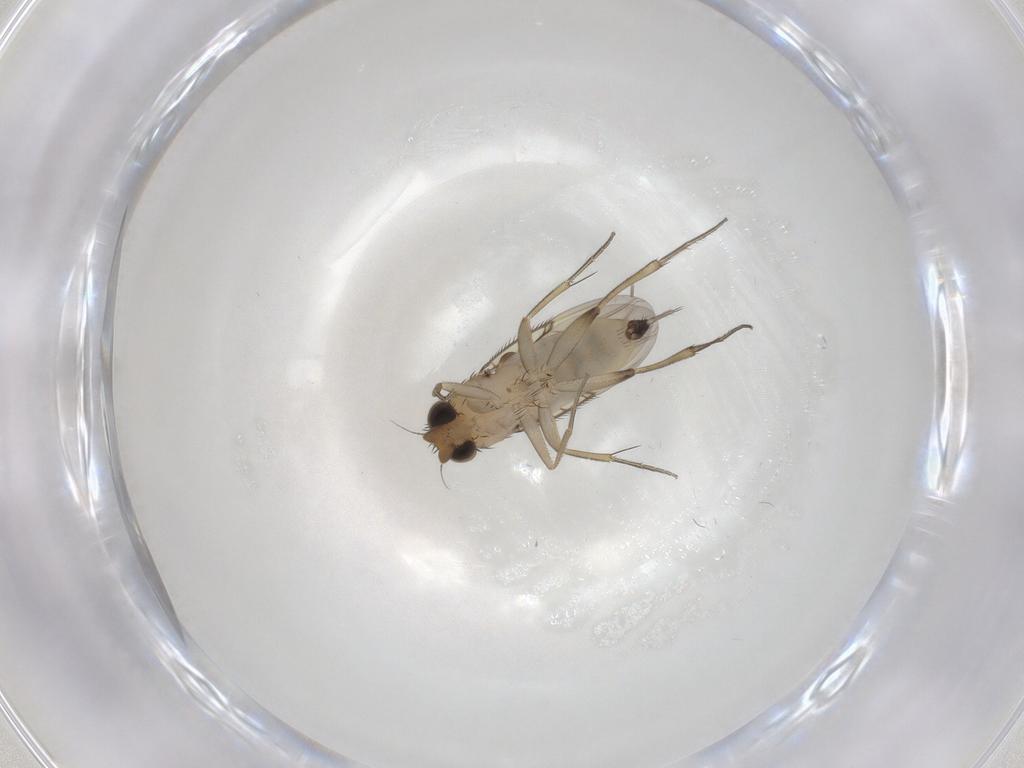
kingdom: Animalia
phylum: Arthropoda
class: Insecta
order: Diptera
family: Phoridae
